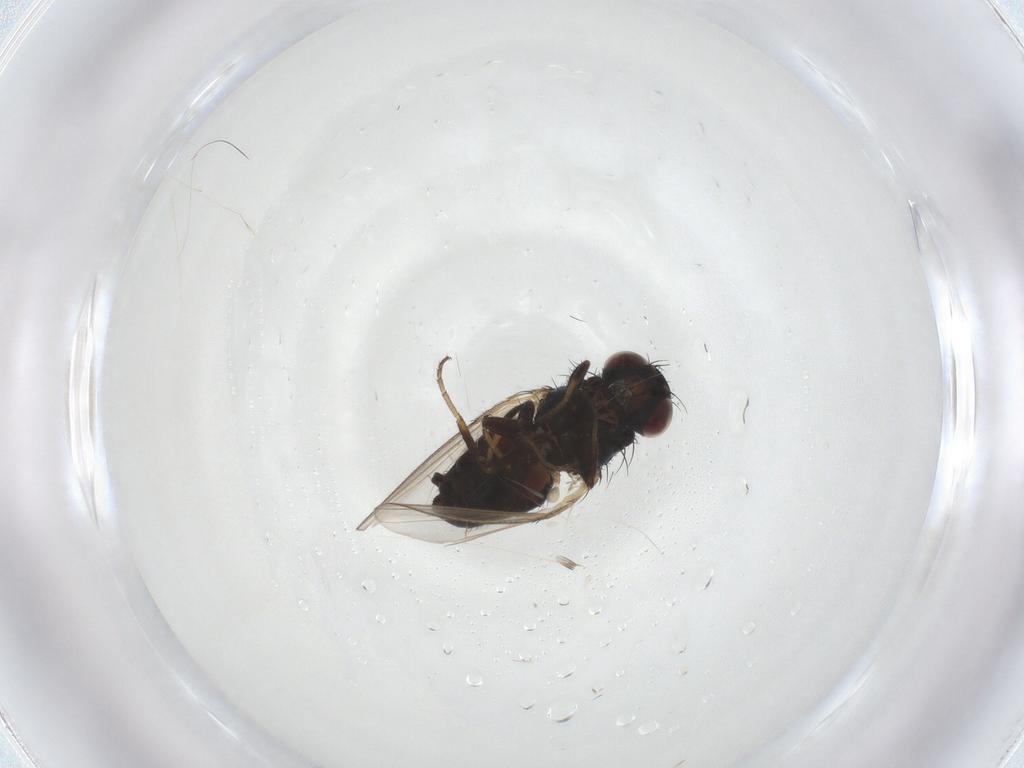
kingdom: Animalia
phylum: Arthropoda
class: Insecta
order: Diptera
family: Carnidae
